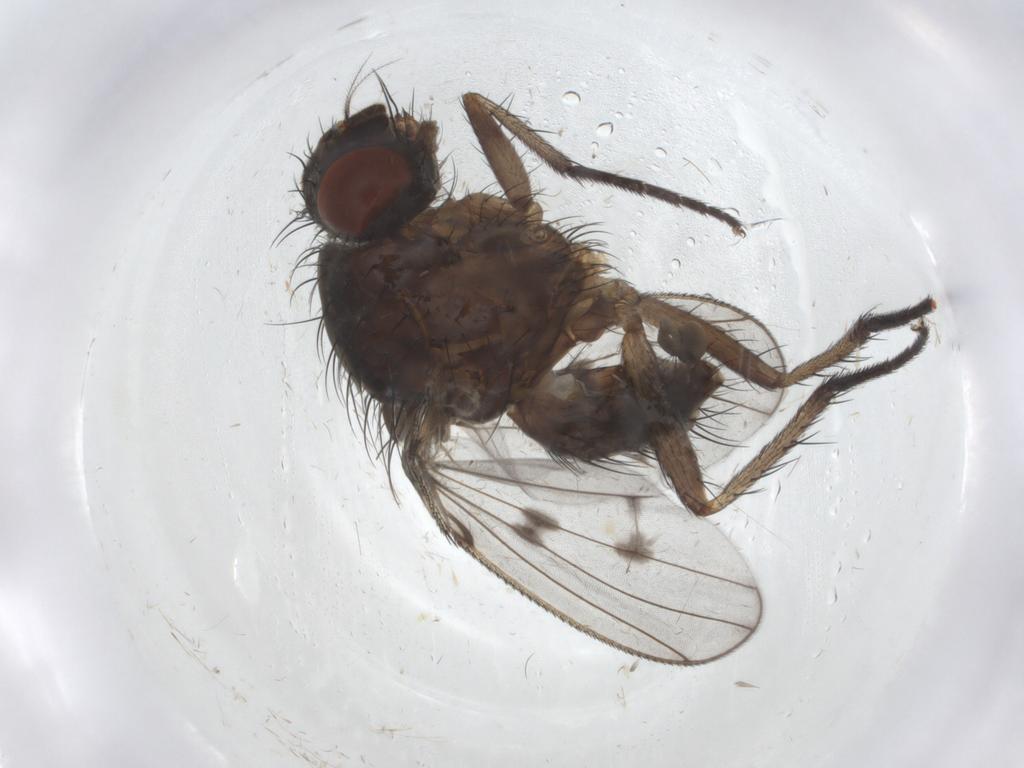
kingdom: Animalia
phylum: Arthropoda
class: Insecta
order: Diptera
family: Anthomyiidae
